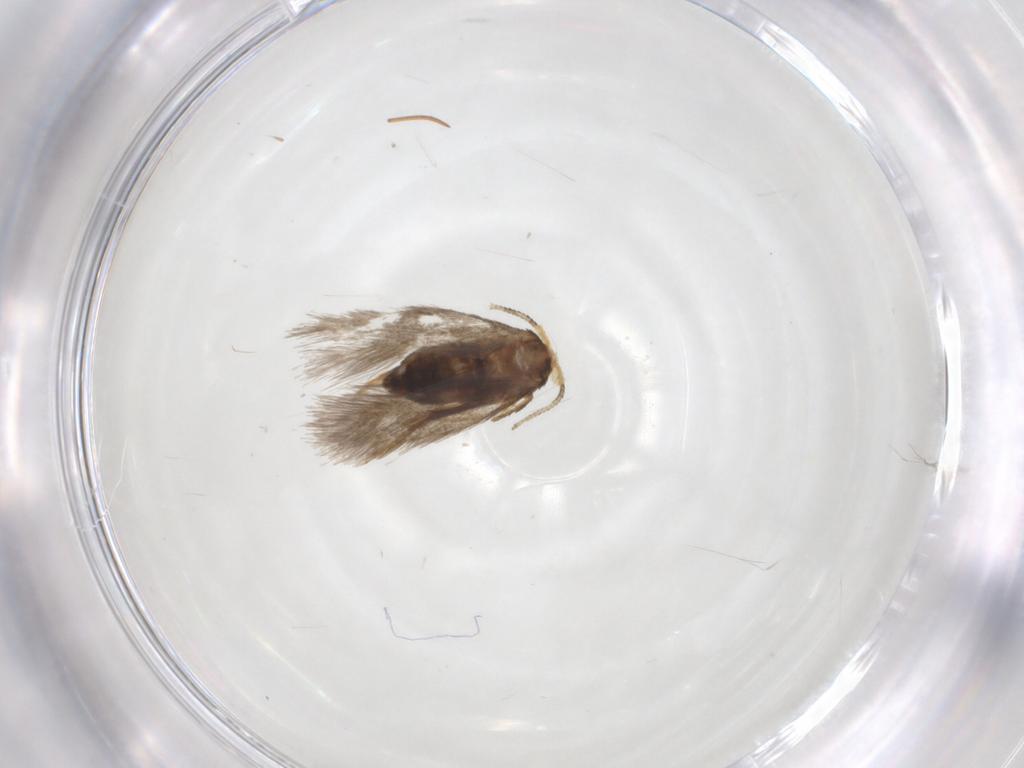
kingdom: Animalia
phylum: Arthropoda
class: Insecta
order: Lepidoptera
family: Nepticulidae
